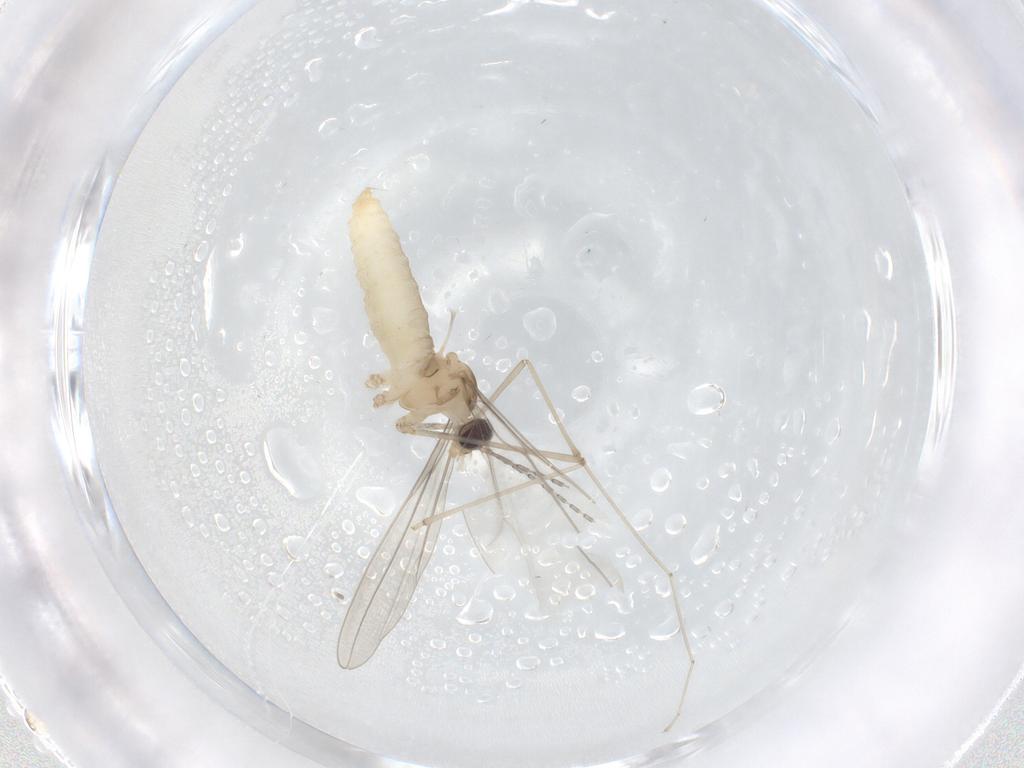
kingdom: Animalia
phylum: Arthropoda
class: Insecta
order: Diptera
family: Cecidomyiidae
